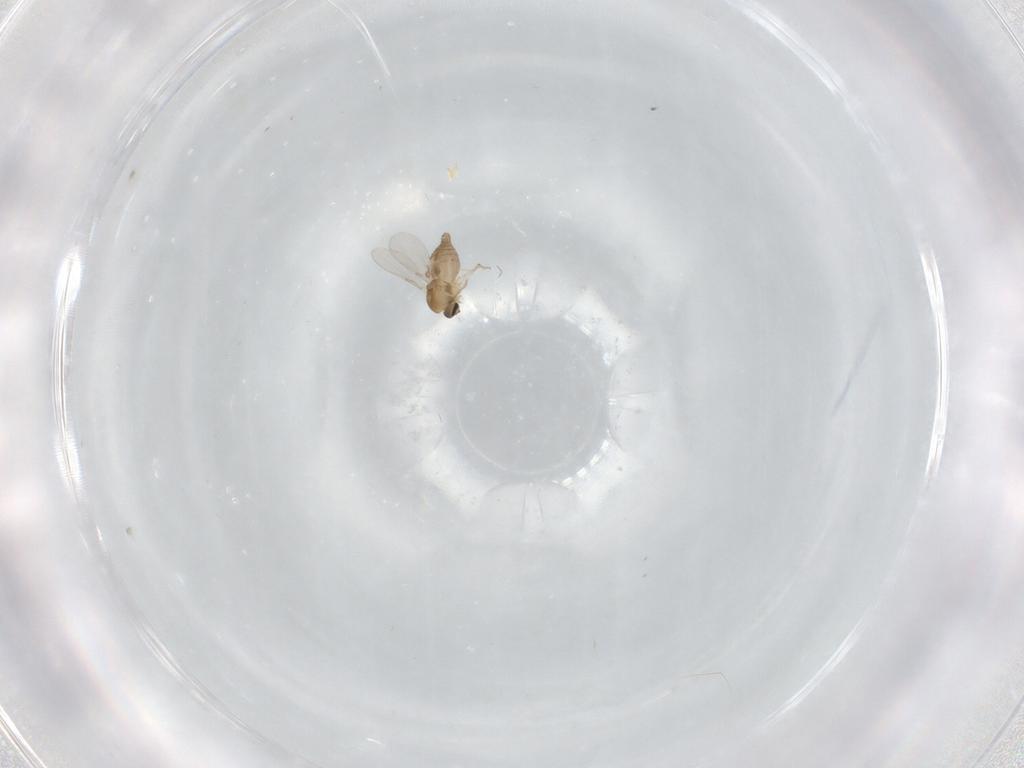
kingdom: Animalia
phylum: Arthropoda
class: Insecta
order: Diptera
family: Ceratopogonidae
